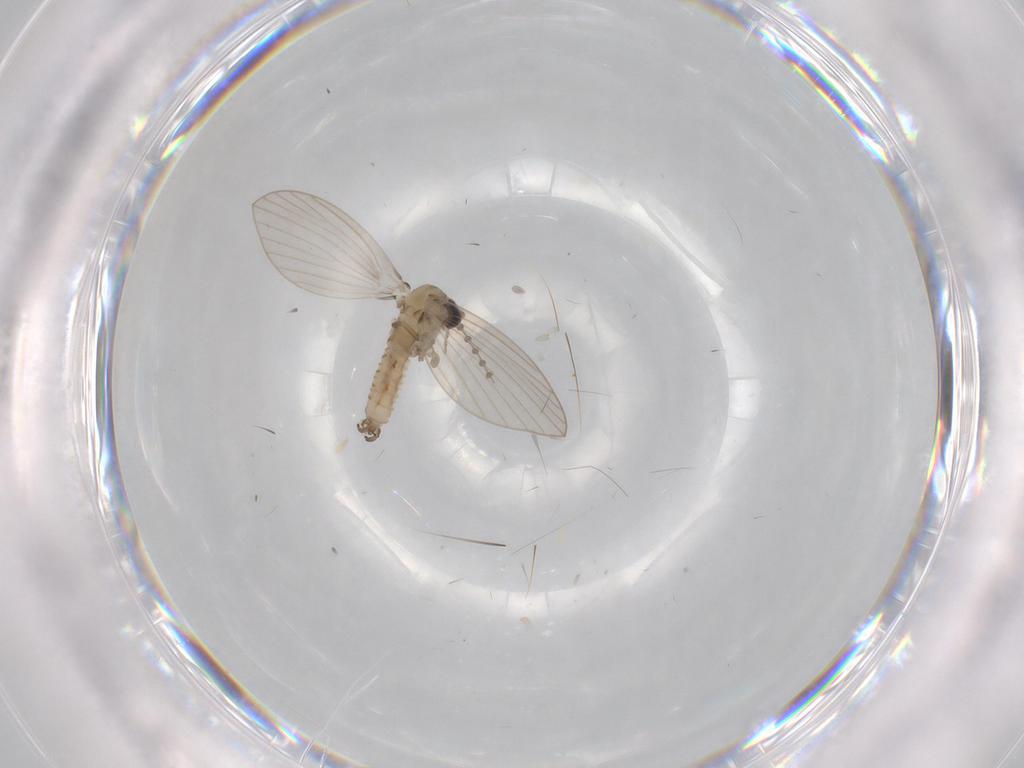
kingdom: Animalia
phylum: Arthropoda
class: Insecta
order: Diptera
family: Psychodidae
